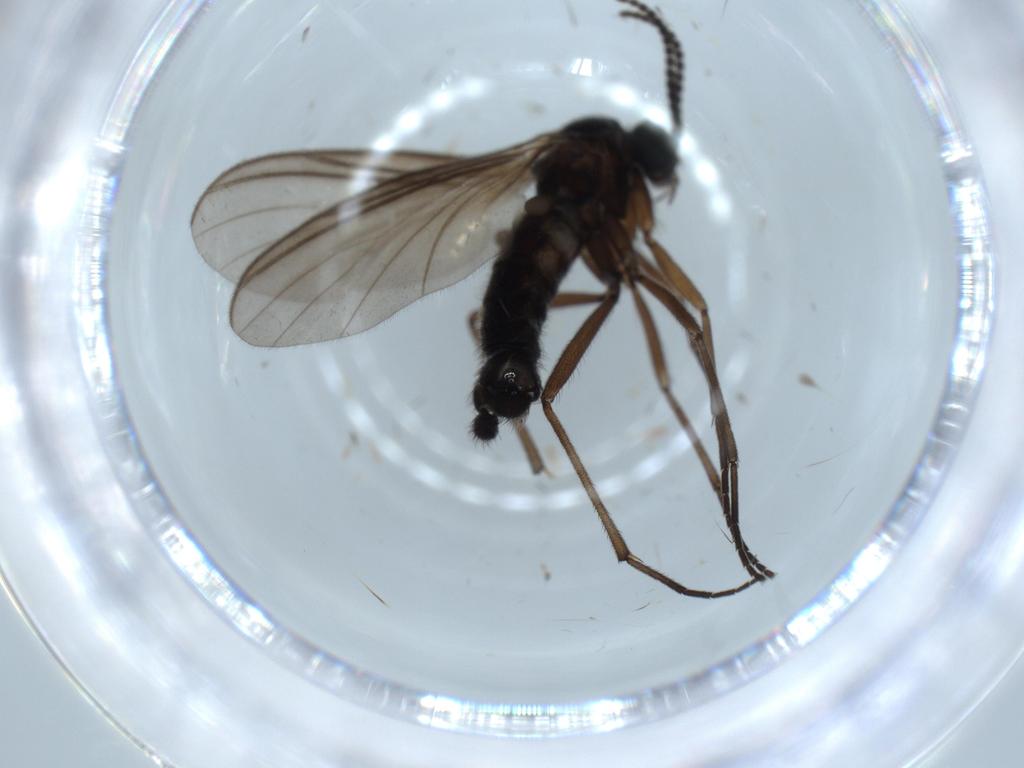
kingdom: Animalia
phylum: Arthropoda
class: Insecta
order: Diptera
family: Phoridae
